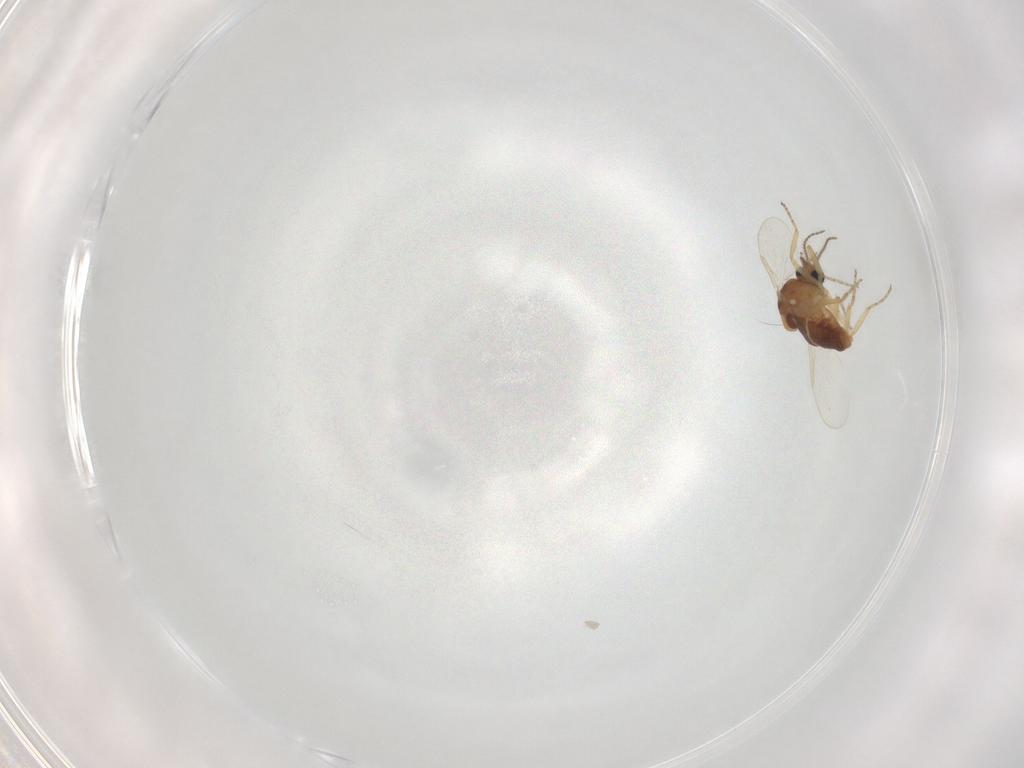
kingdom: Animalia
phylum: Arthropoda
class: Insecta
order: Diptera
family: Ceratopogonidae
